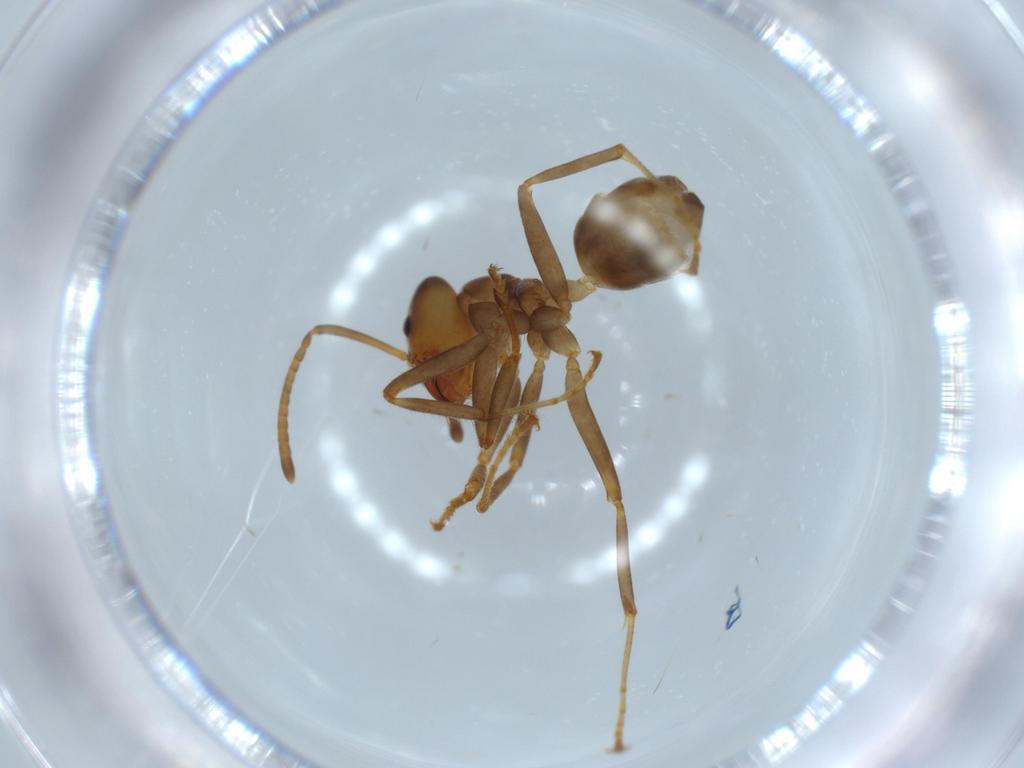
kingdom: Animalia
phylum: Arthropoda
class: Insecta
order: Hymenoptera
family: Formicidae
